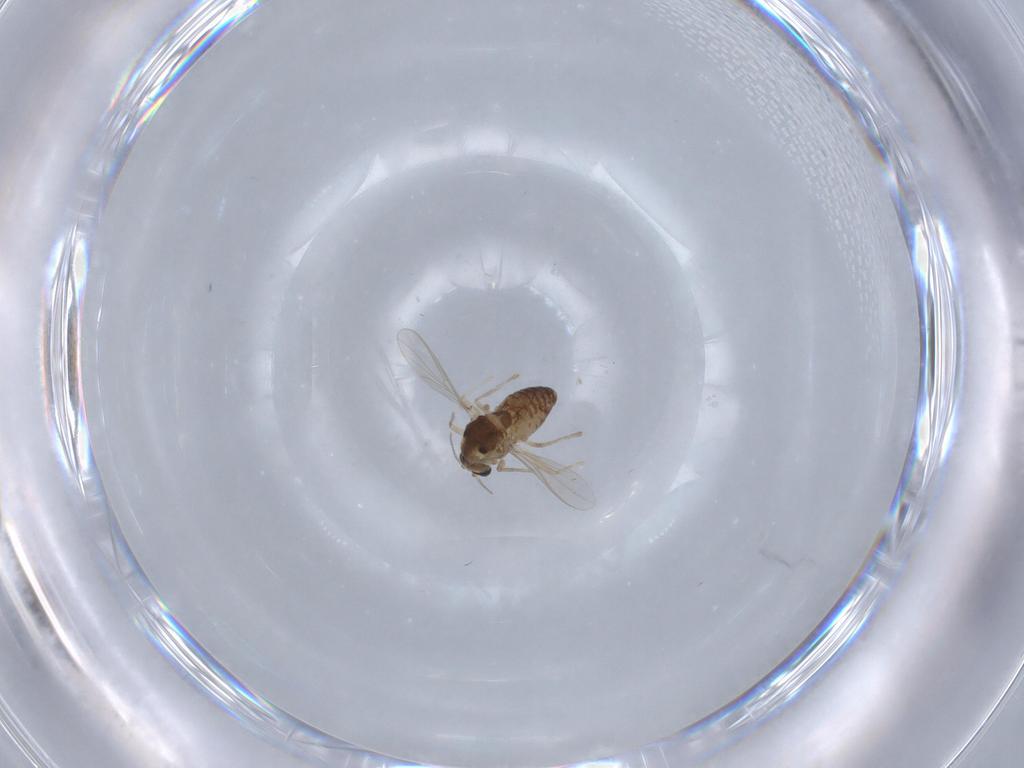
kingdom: Animalia
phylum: Arthropoda
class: Insecta
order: Diptera
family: Chironomidae
